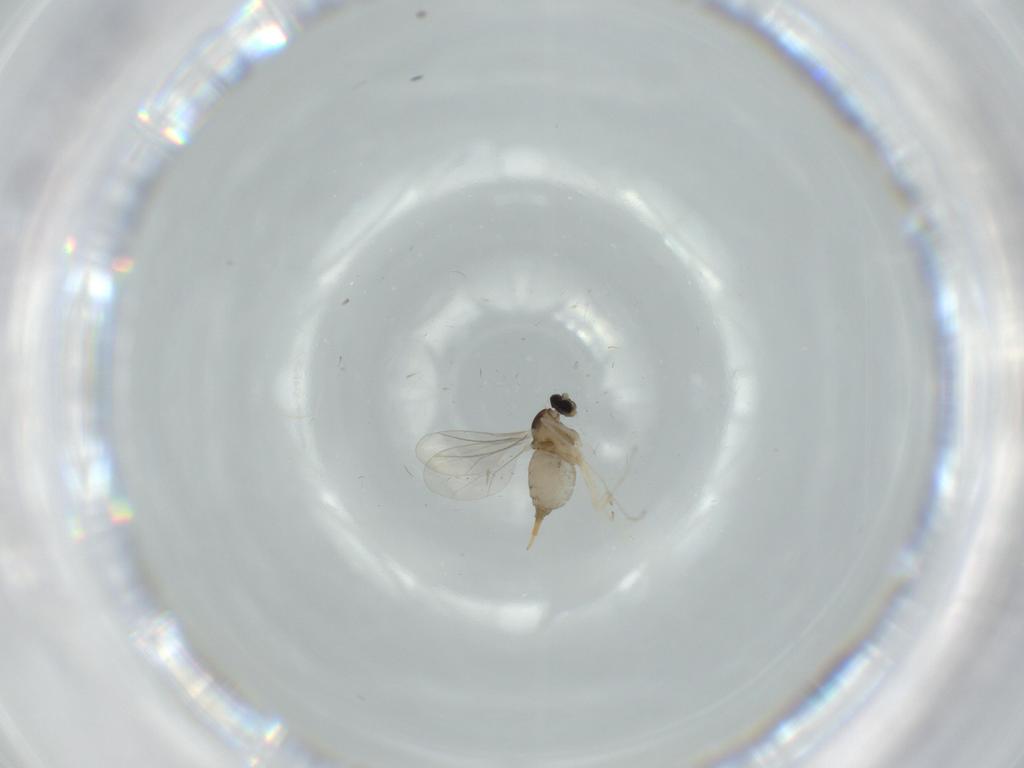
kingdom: Animalia
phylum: Arthropoda
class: Insecta
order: Diptera
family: Cecidomyiidae
